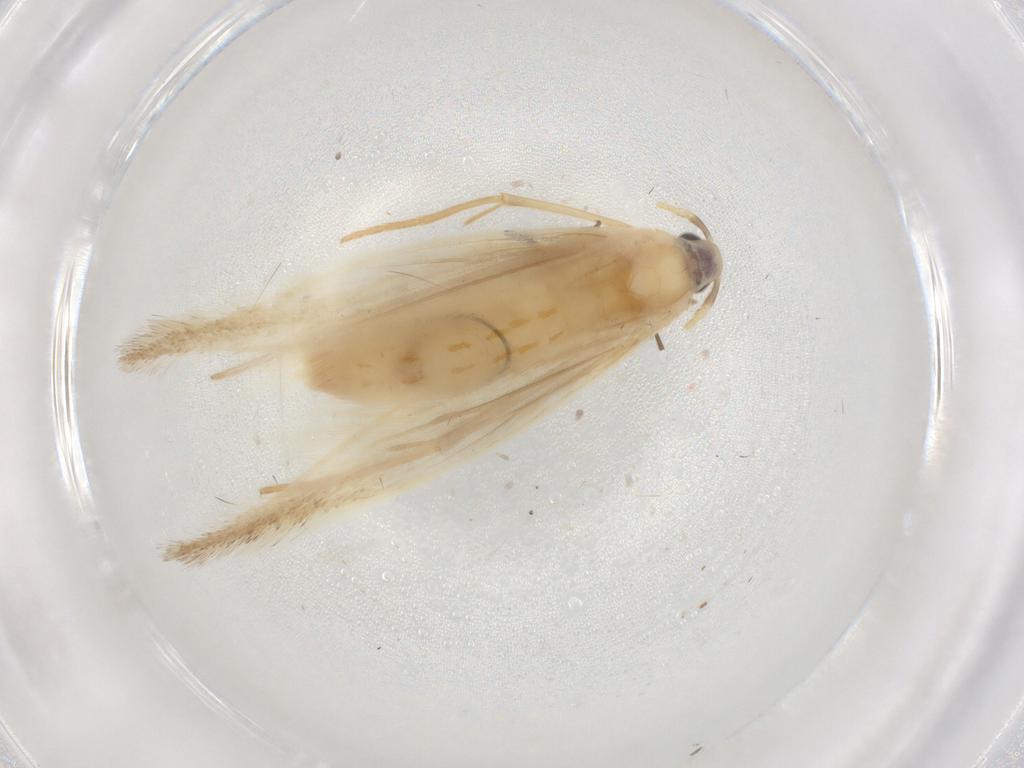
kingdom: Animalia
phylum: Arthropoda
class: Insecta
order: Lepidoptera
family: Xyloryctidae
